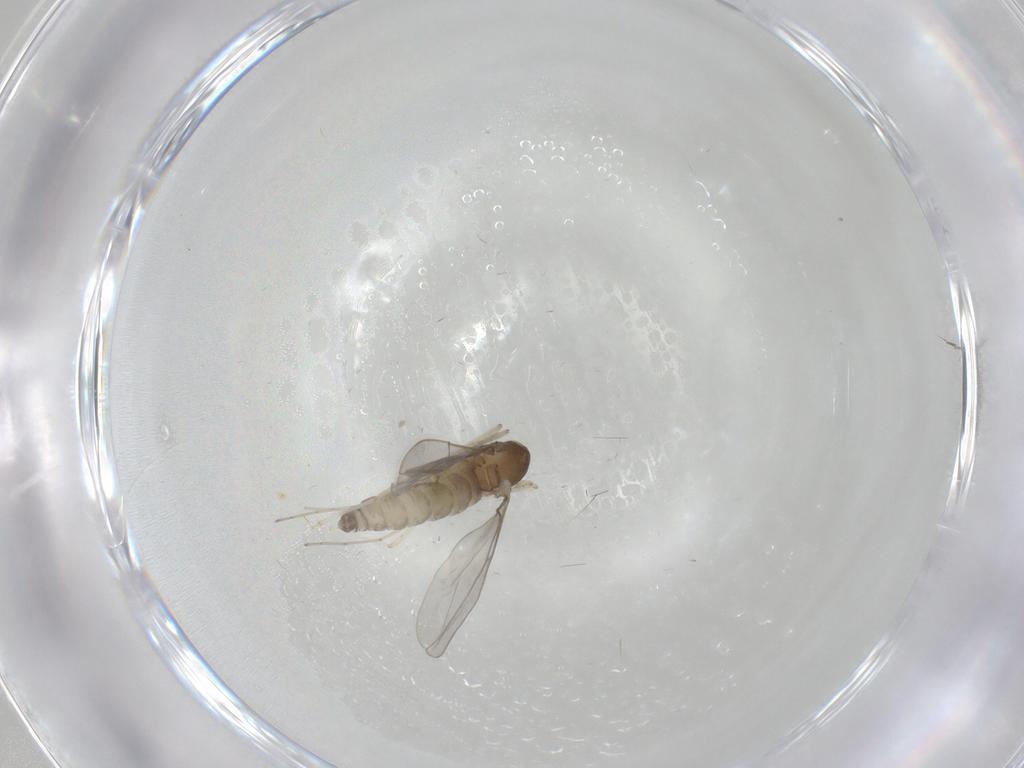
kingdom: Animalia
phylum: Arthropoda
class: Insecta
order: Diptera
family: Cecidomyiidae
